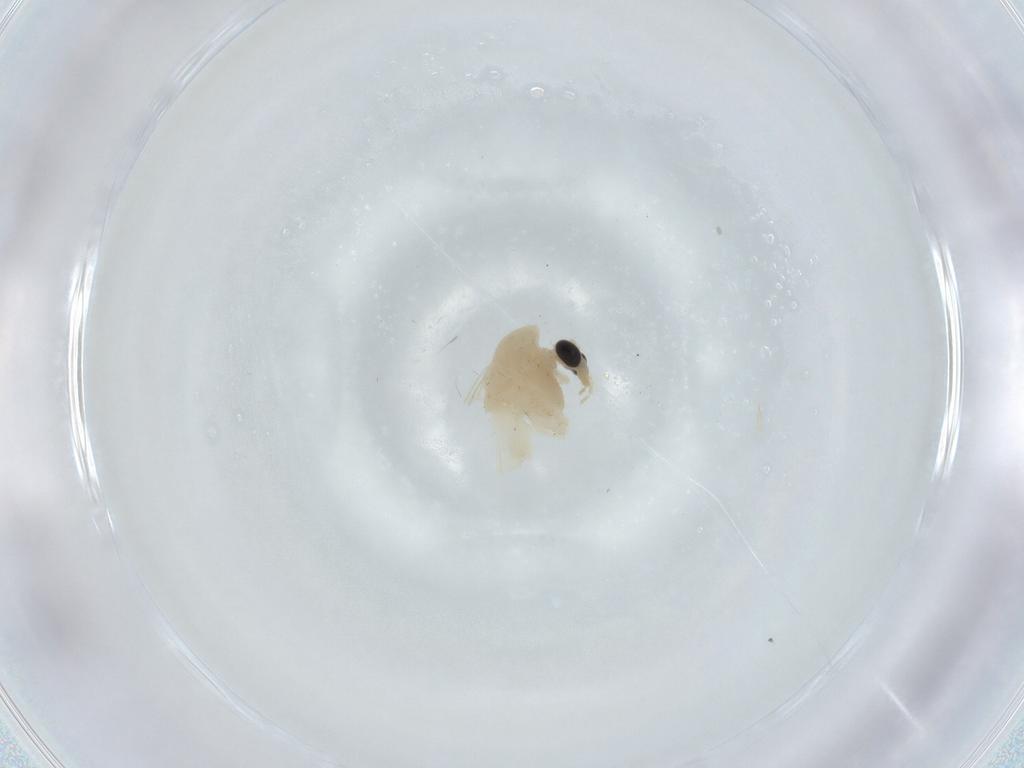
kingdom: Animalia
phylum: Arthropoda
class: Insecta
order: Diptera
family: Chironomidae
